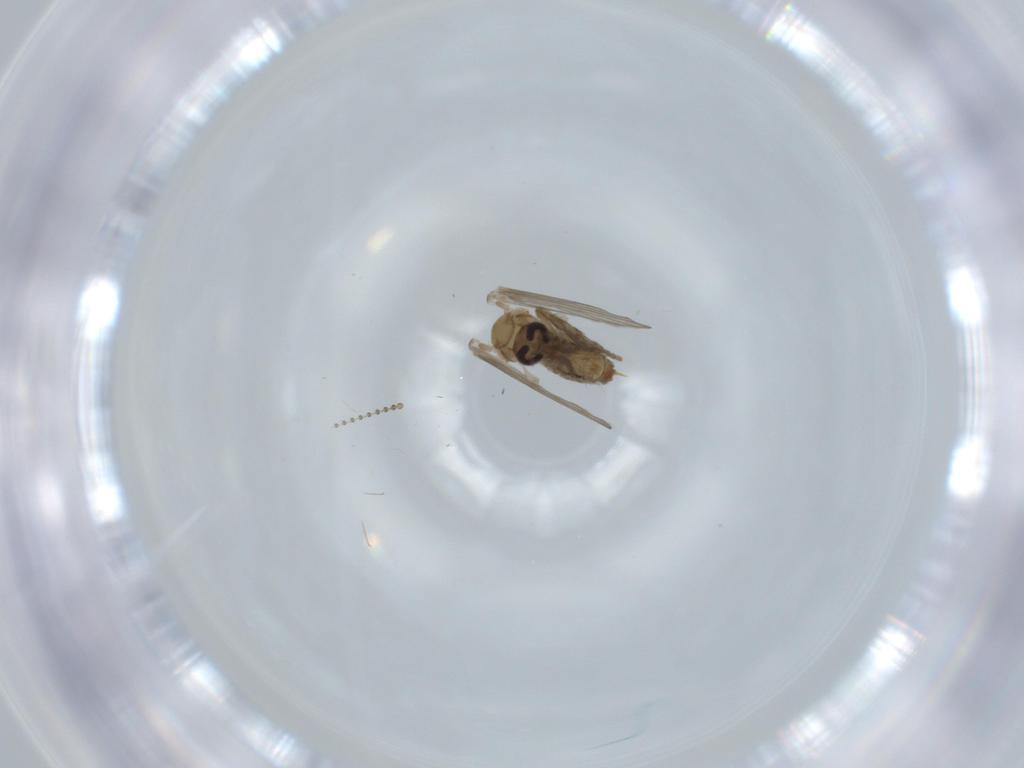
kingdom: Animalia
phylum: Arthropoda
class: Insecta
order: Diptera
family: Psychodidae
